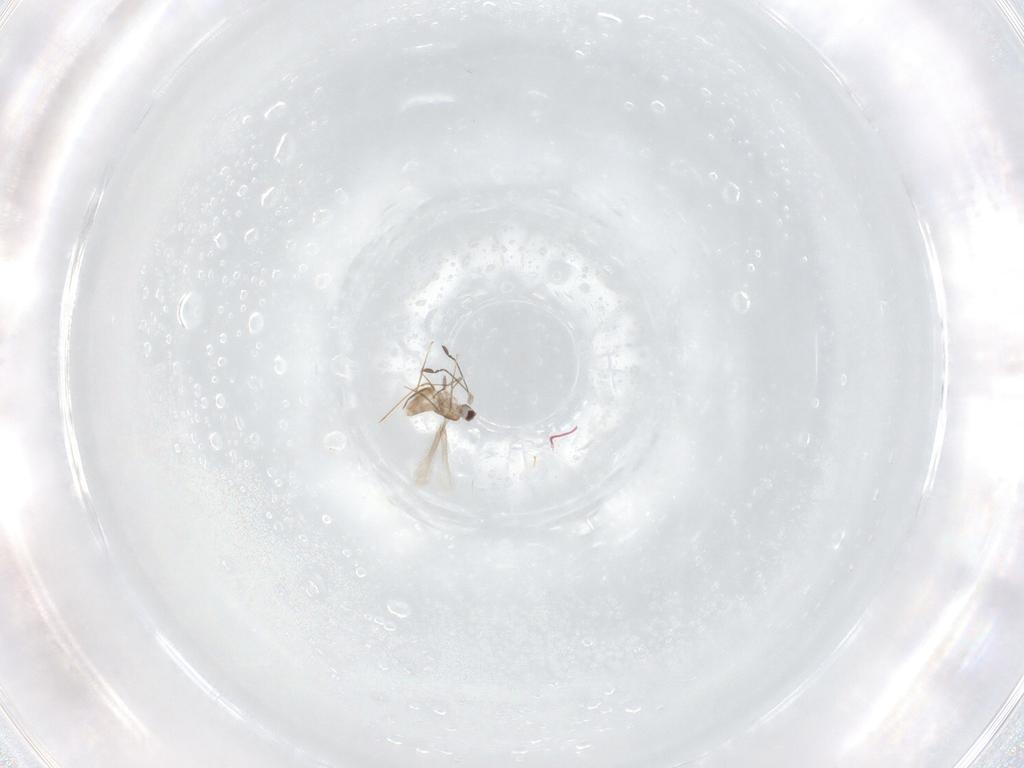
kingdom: Animalia
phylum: Arthropoda
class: Insecta
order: Hymenoptera
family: Mymaridae
